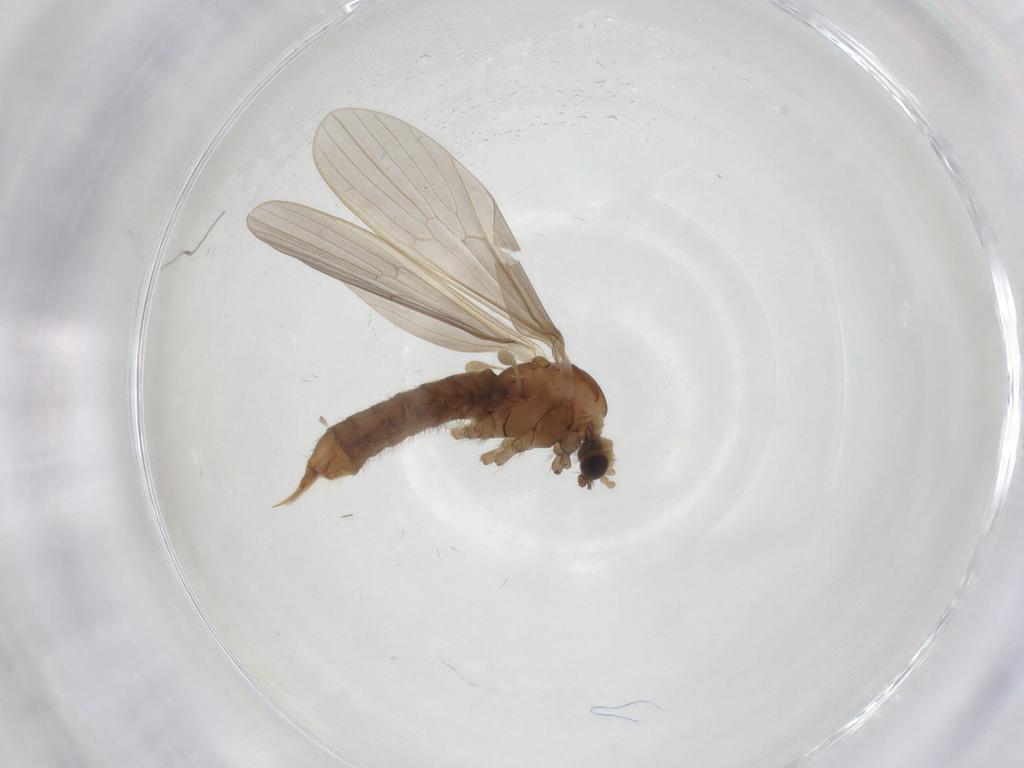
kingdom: Animalia
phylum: Arthropoda
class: Insecta
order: Diptera
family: Limoniidae
